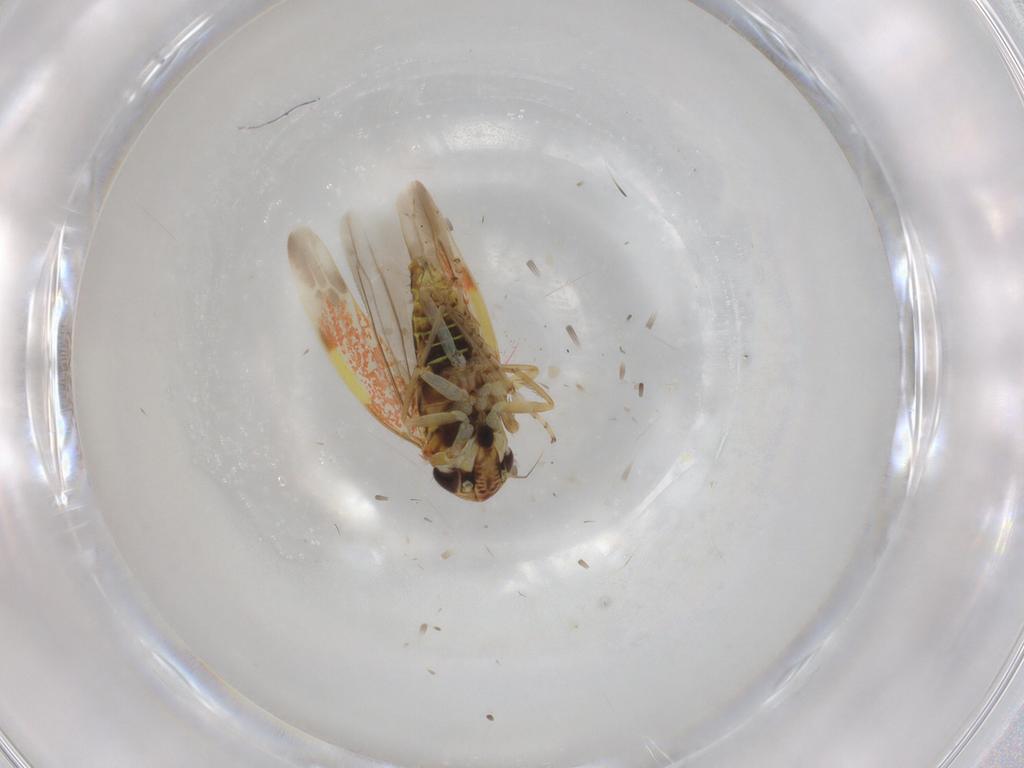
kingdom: Animalia
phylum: Arthropoda
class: Insecta
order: Hemiptera
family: Cicadellidae
